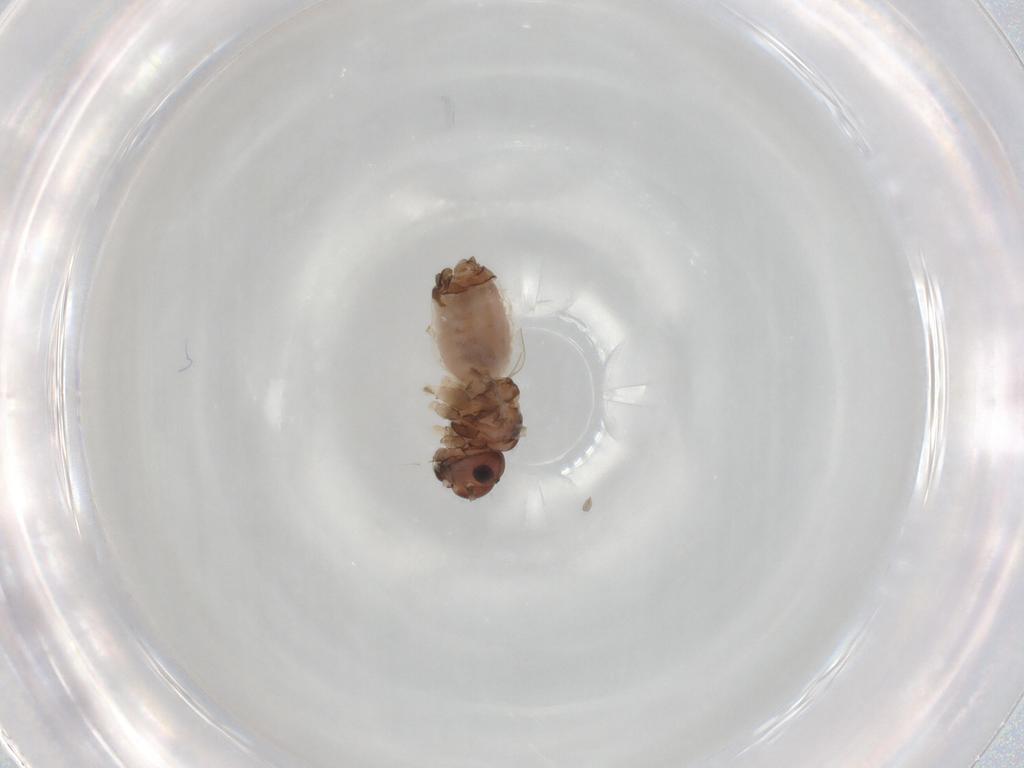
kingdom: Animalia
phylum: Arthropoda
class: Insecta
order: Psocodea
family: Peripsocidae
